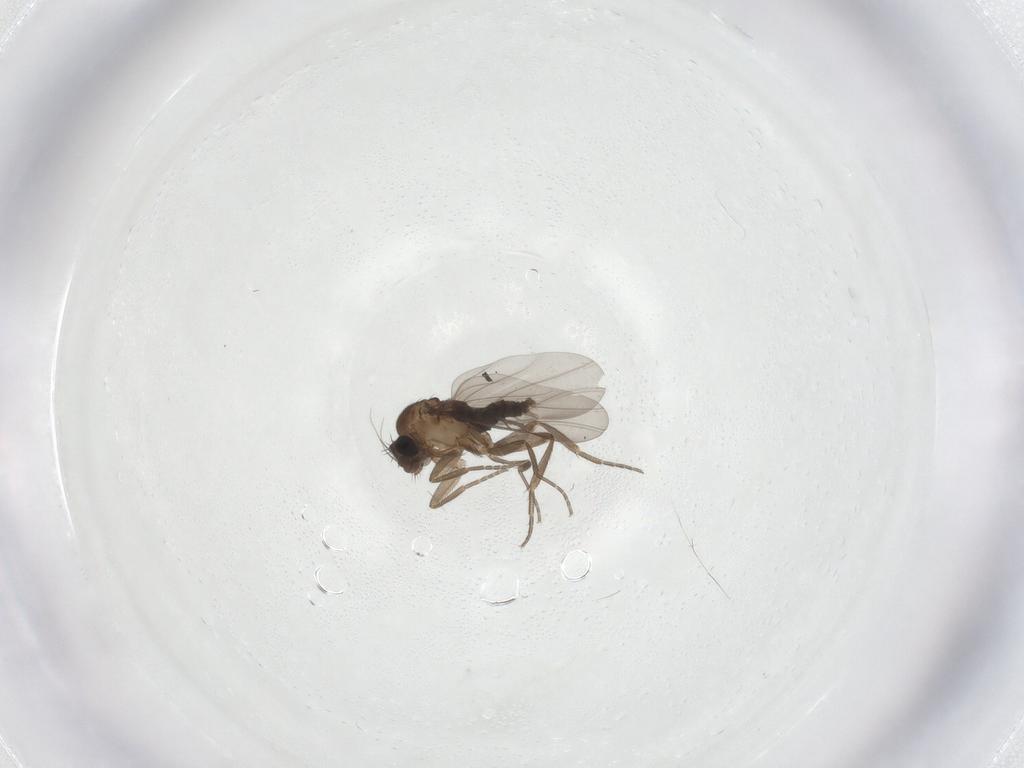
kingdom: Animalia
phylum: Arthropoda
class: Insecta
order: Diptera
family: Phoridae
